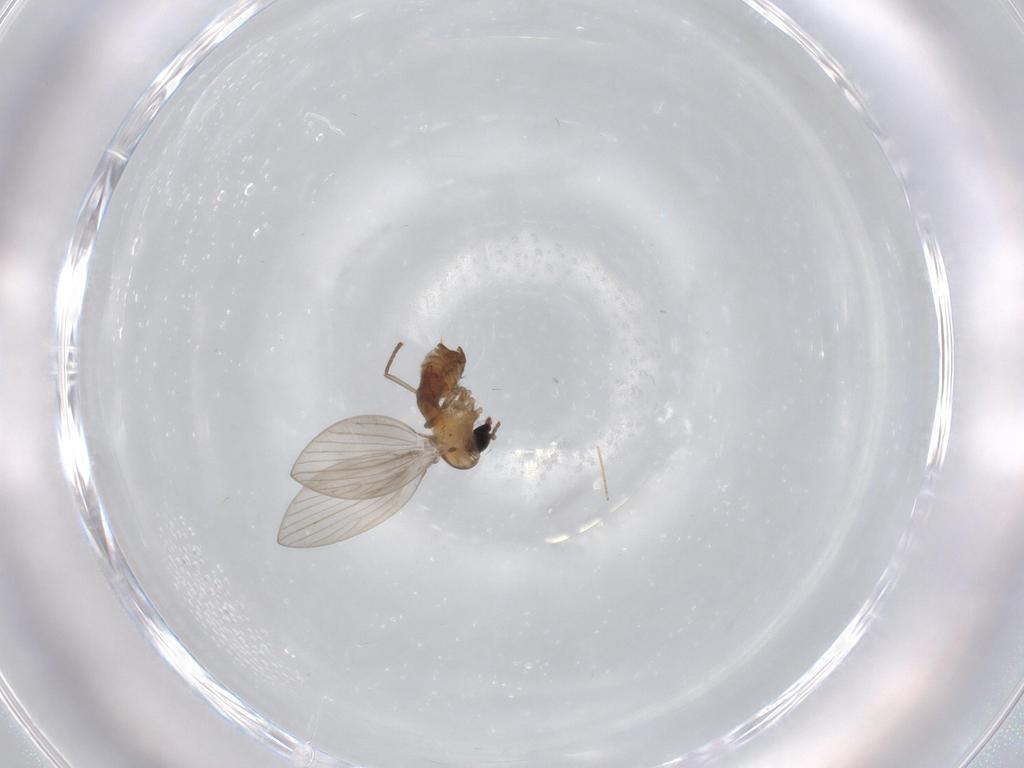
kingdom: Animalia
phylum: Arthropoda
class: Insecta
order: Diptera
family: Psychodidae
